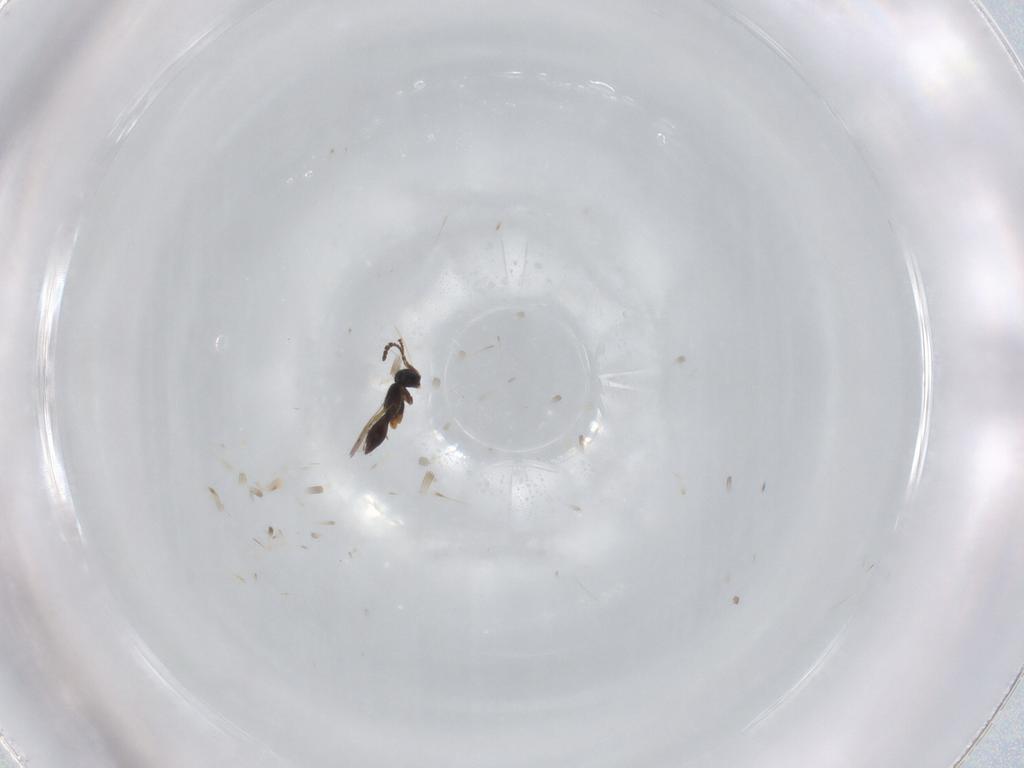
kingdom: Animalia
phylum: Arthropoda
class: Insecta
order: Hymenoptera
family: Scelionidae
